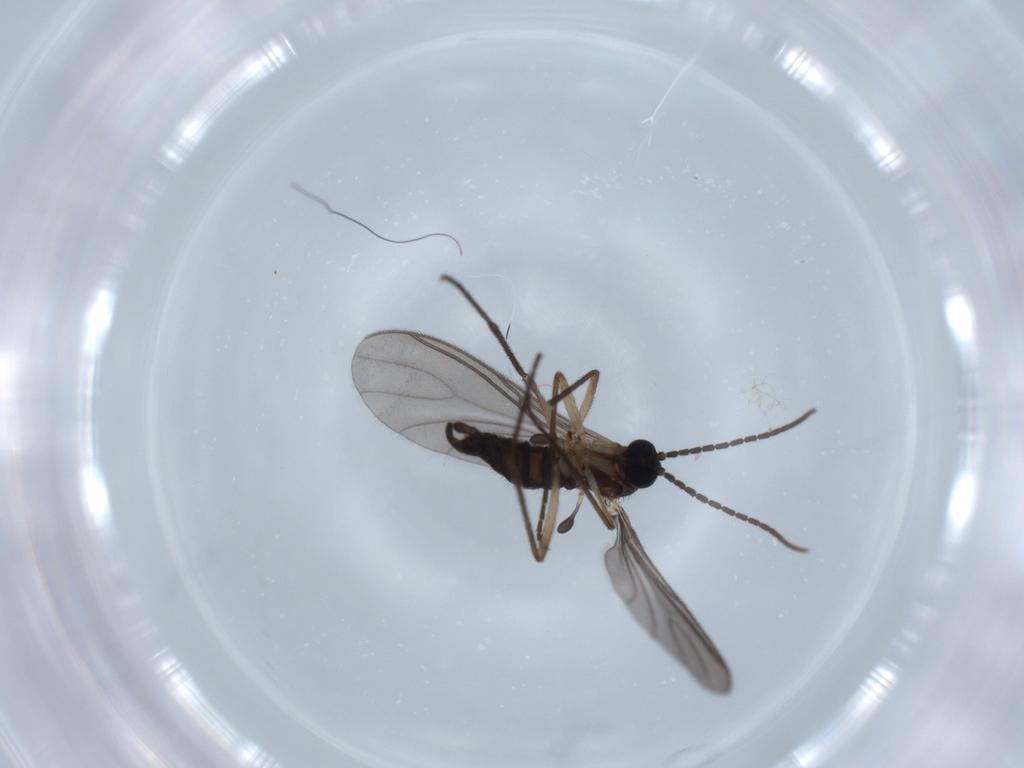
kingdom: Animalia
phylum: Arthropoda
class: Insecta
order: Diptera
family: Sciaridae
